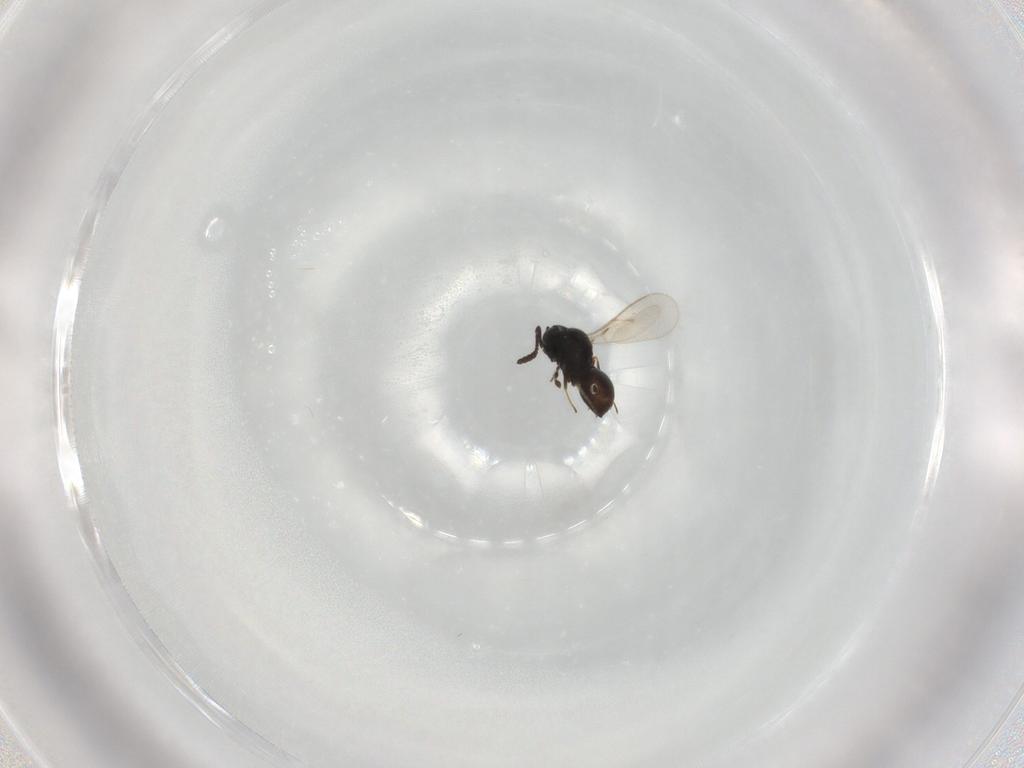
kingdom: Animalia
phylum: Arthropoda
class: Insecta
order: Hymenoptera
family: Scelionidae
